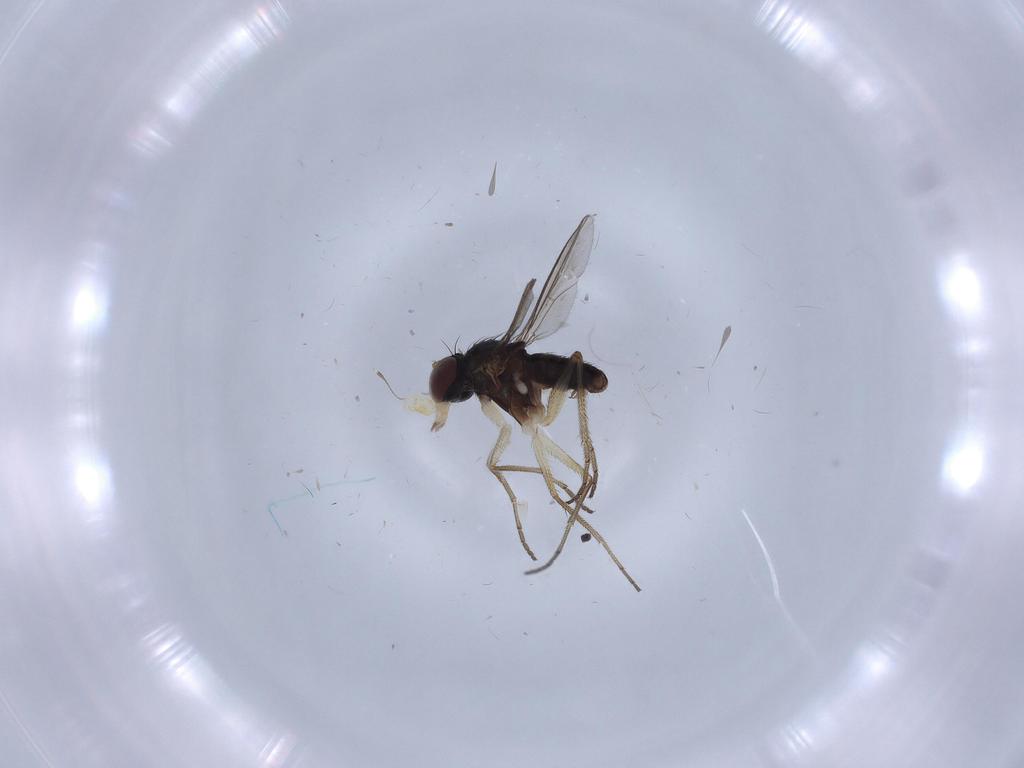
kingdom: Animalia
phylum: Arthropoda
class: Insecta
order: Diptera
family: Dolichopodidae
